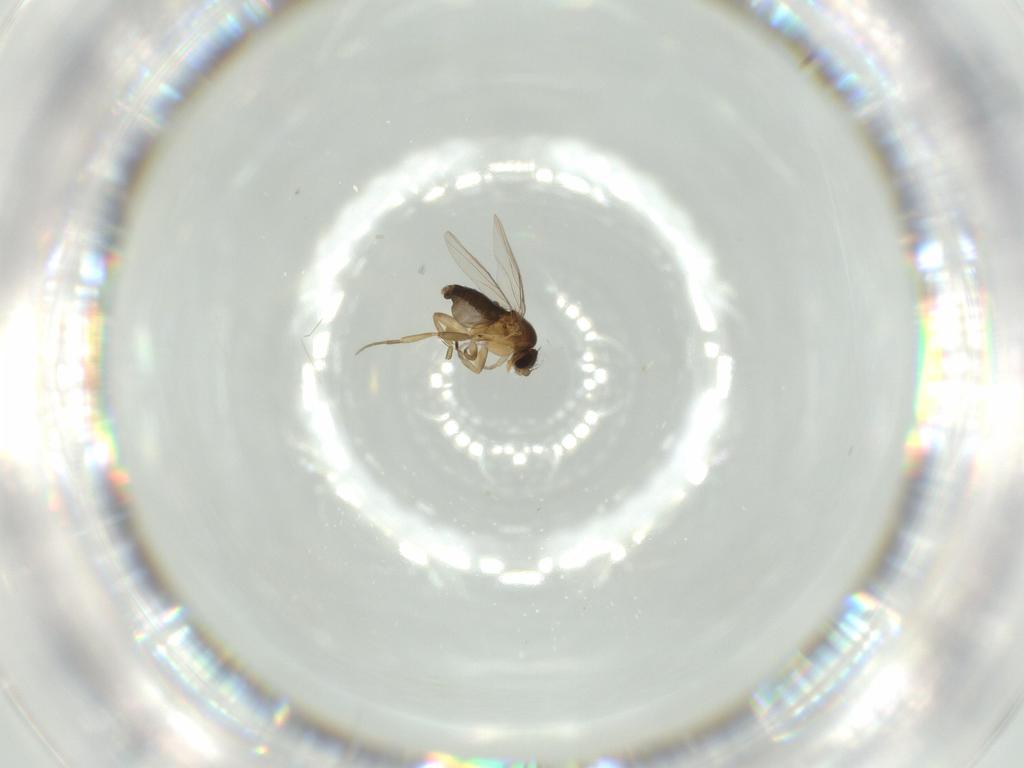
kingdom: Animalia
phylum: Arthropoda
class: Insecta
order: Diptera
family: Phoridae
